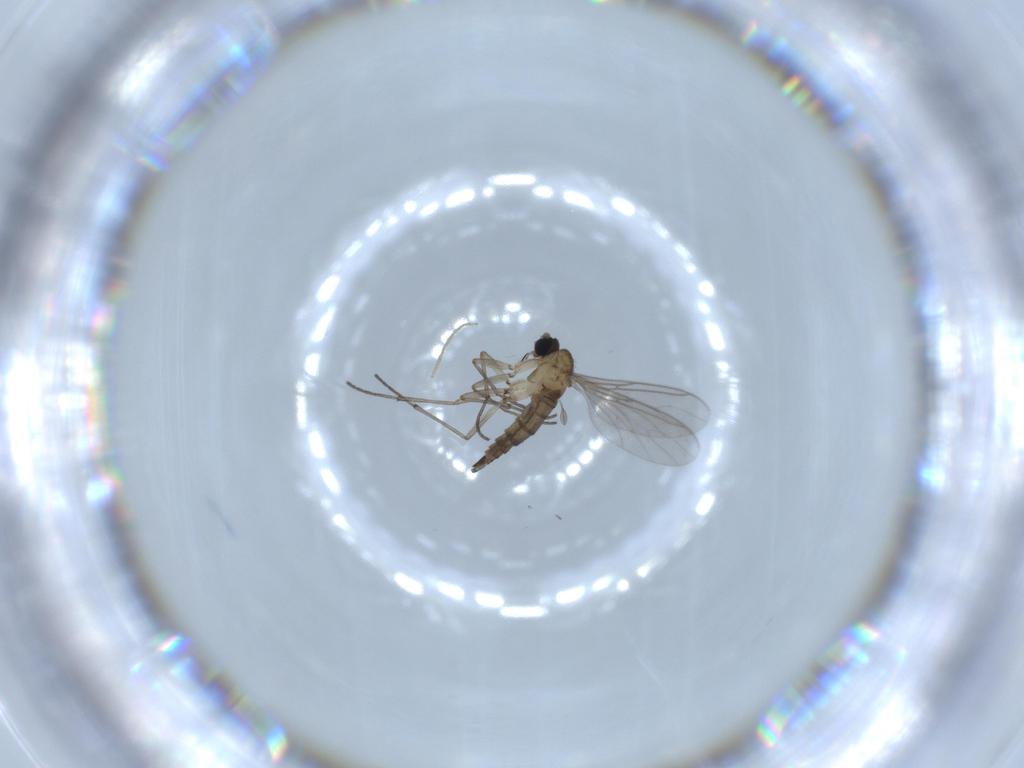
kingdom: Animalia
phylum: Arthropoda
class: Insecta
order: Diptera
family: Sciaridae
